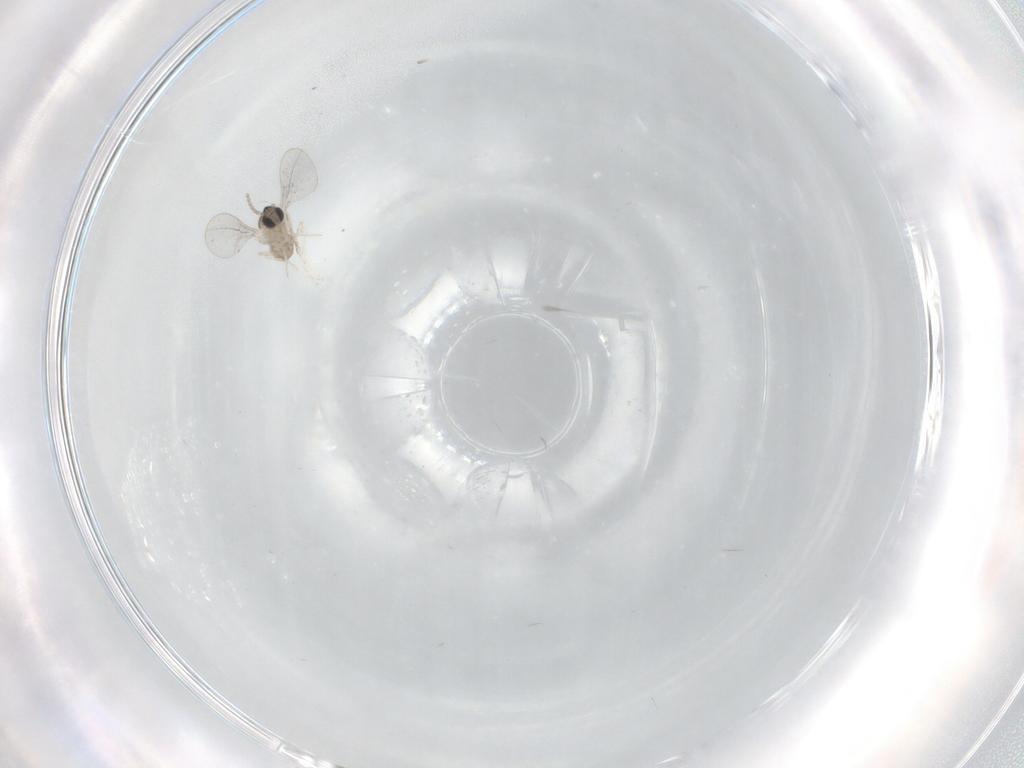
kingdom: Animalia
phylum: Arthropoda
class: Insecta
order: Diptera
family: Cecidomyiidae
